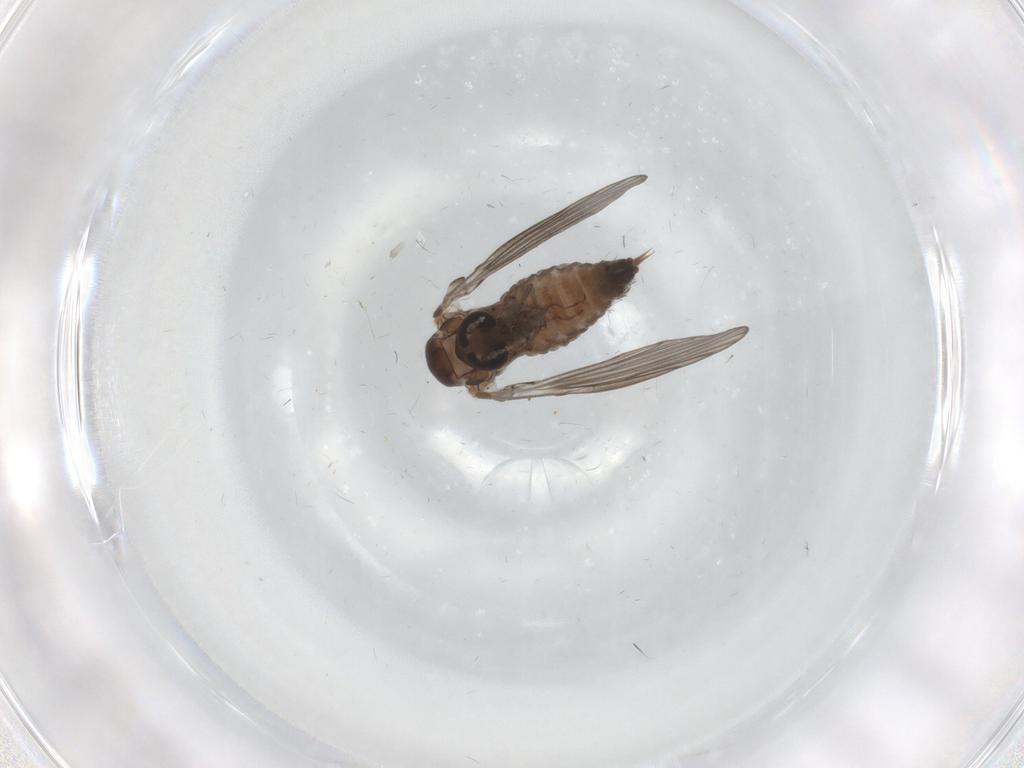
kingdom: Animalia
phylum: Arthropoda
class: Insecta
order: Diptera
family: Psychodidae
